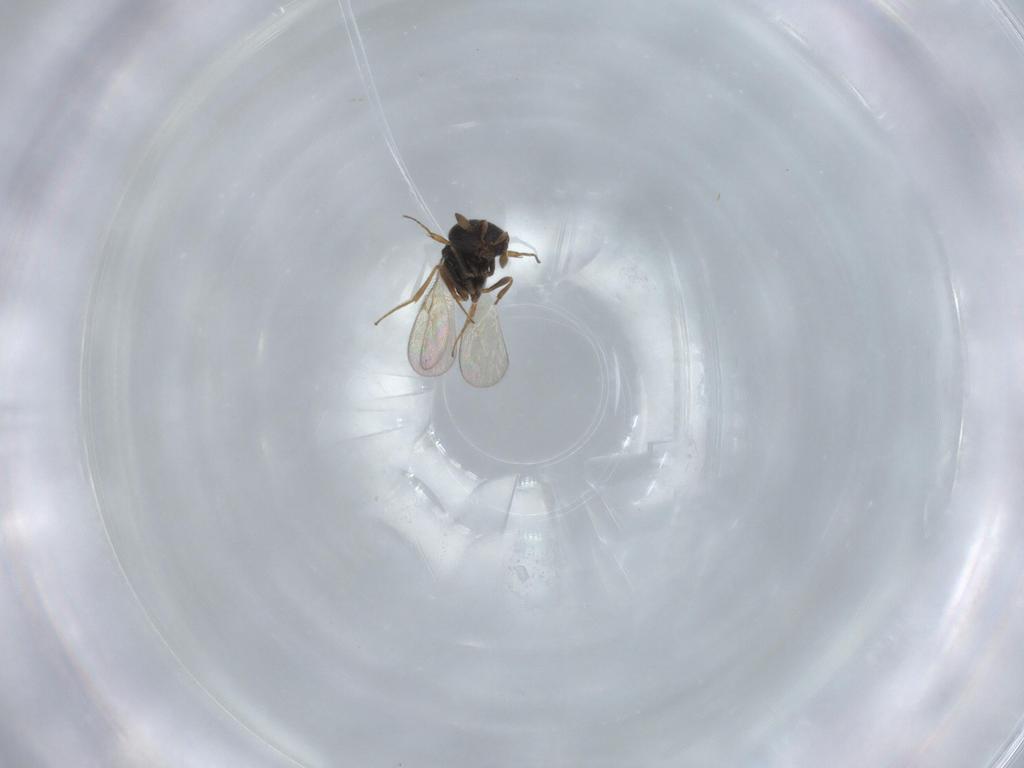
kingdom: Animalia
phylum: Arthropoda
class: Insecta
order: Hymenoptera
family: Scelionidae
